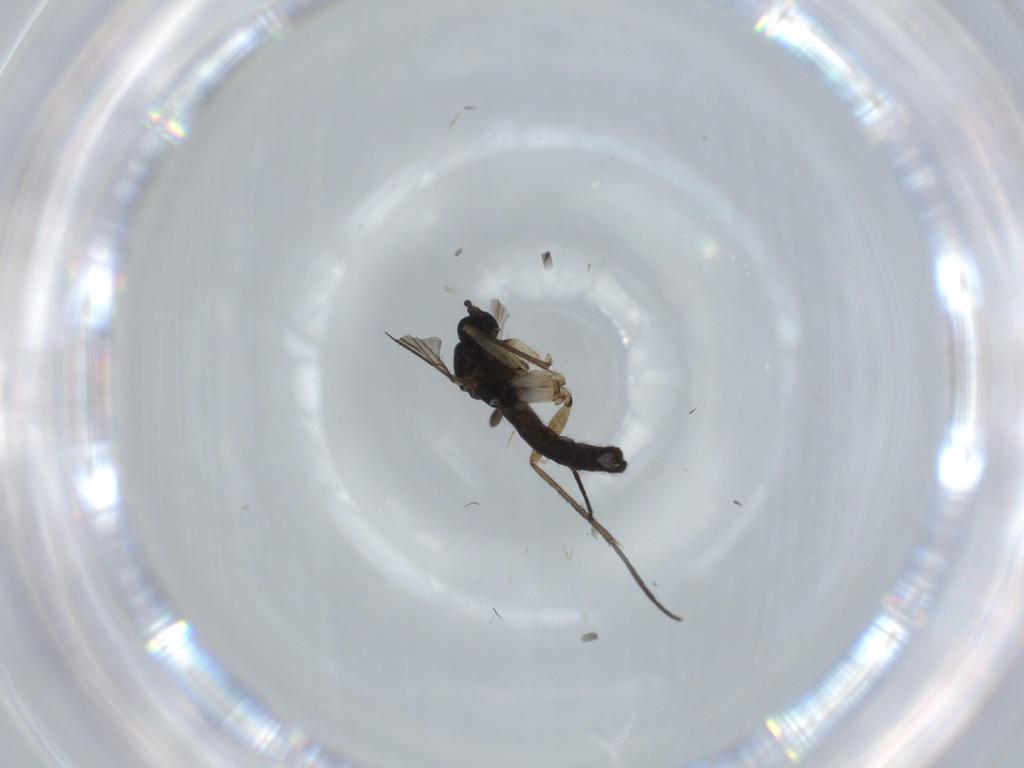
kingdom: Animalia
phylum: Arthropoda
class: Insecta
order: Diptera
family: Sciaridae
